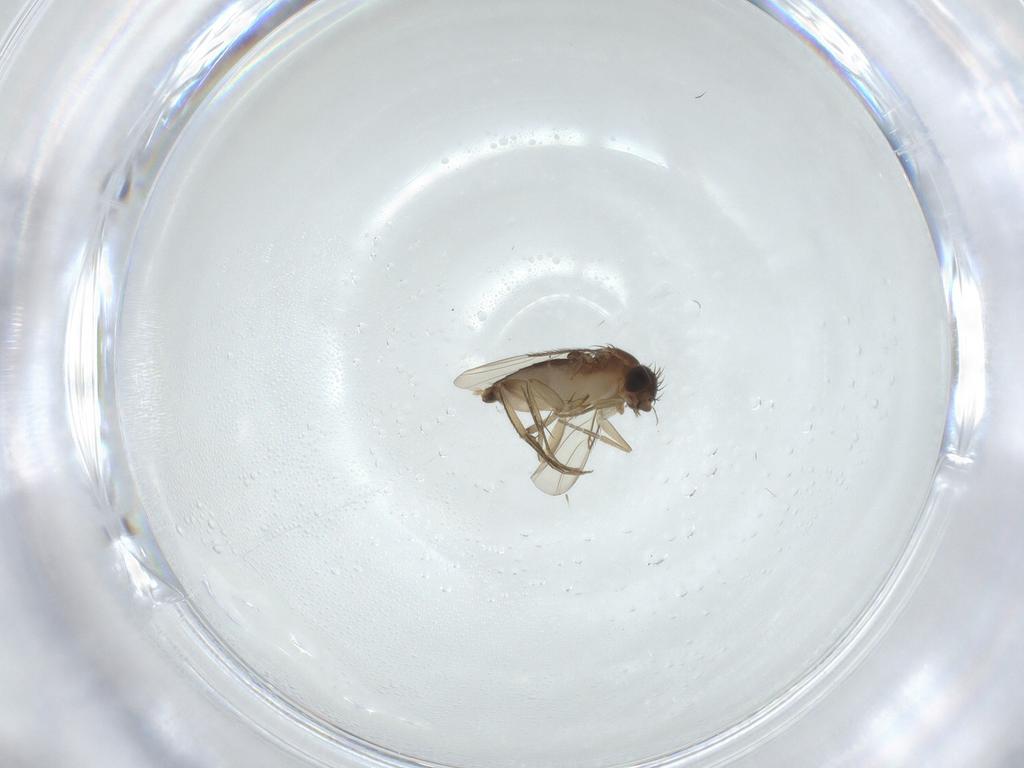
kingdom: Animalia
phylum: Arthropoda
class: Insecta
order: Diptera
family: Phoridae
